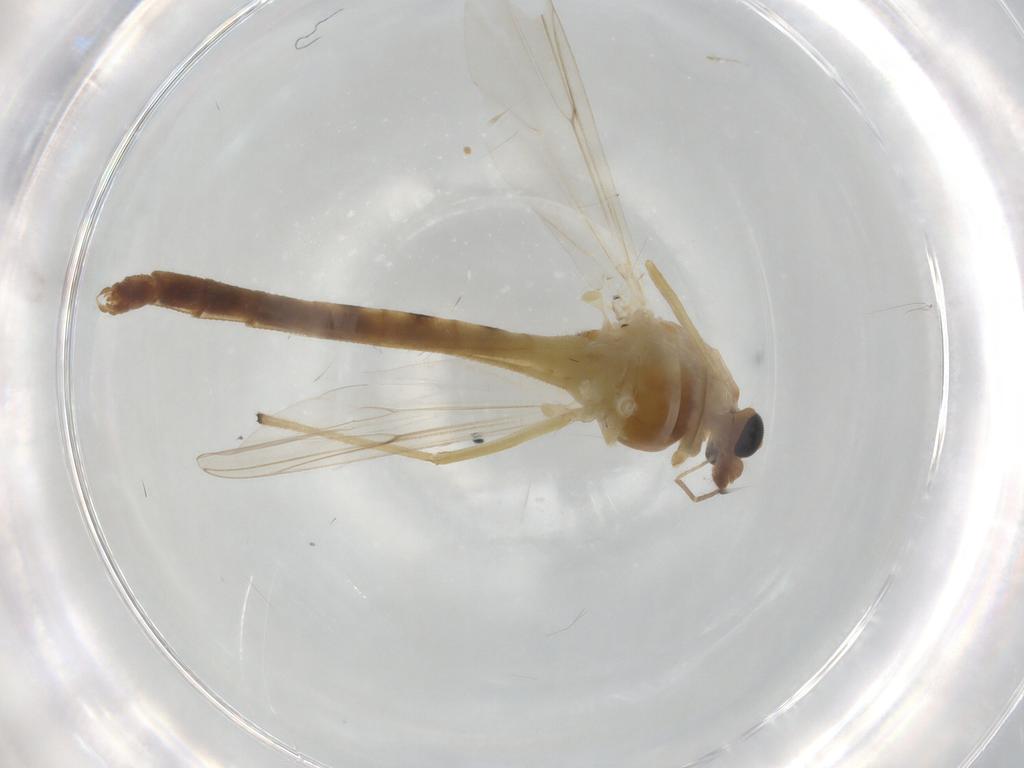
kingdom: Animalia
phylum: Arthropoda
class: Insecta
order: Diptera
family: Chironomidae
